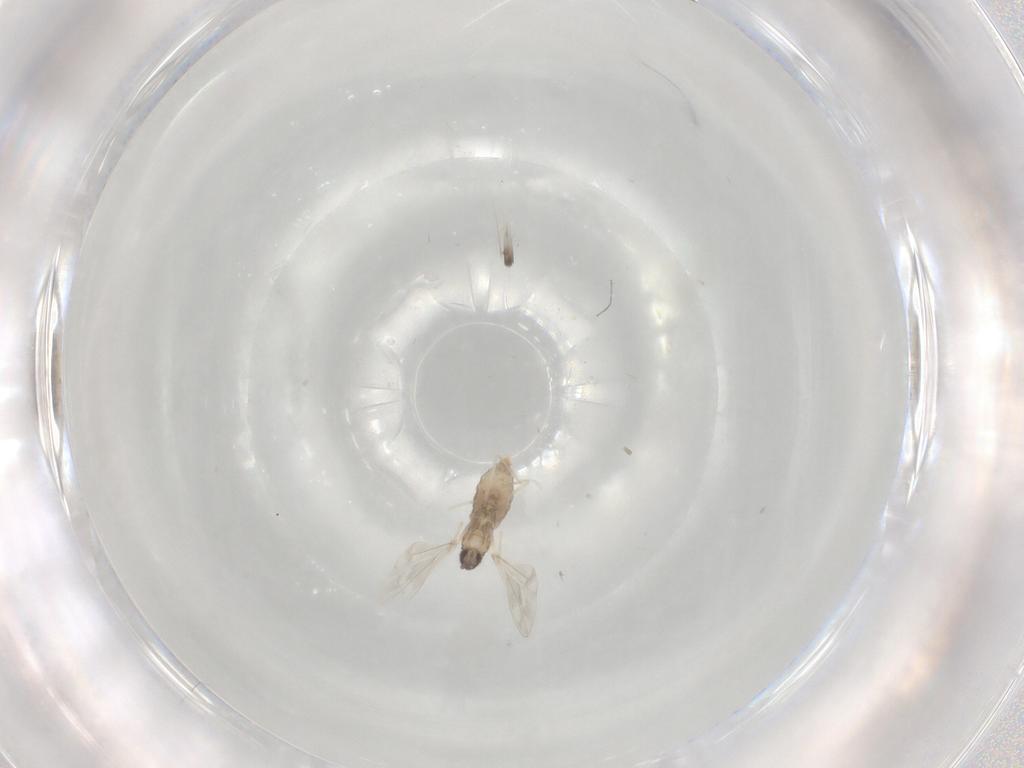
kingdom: Animalia
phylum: Arthropoda
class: Insecta
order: Diptera
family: Cecidomyiidae
